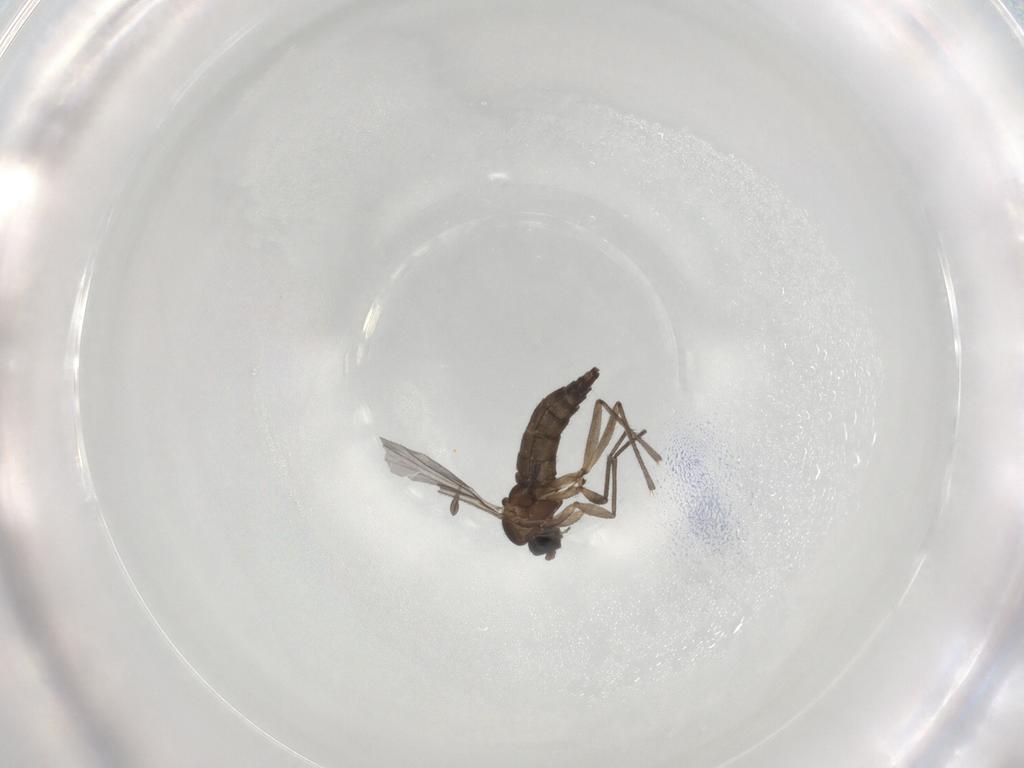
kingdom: Animalia
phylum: Arthropoda
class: Insecta
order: Diptera
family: Sciaridae
